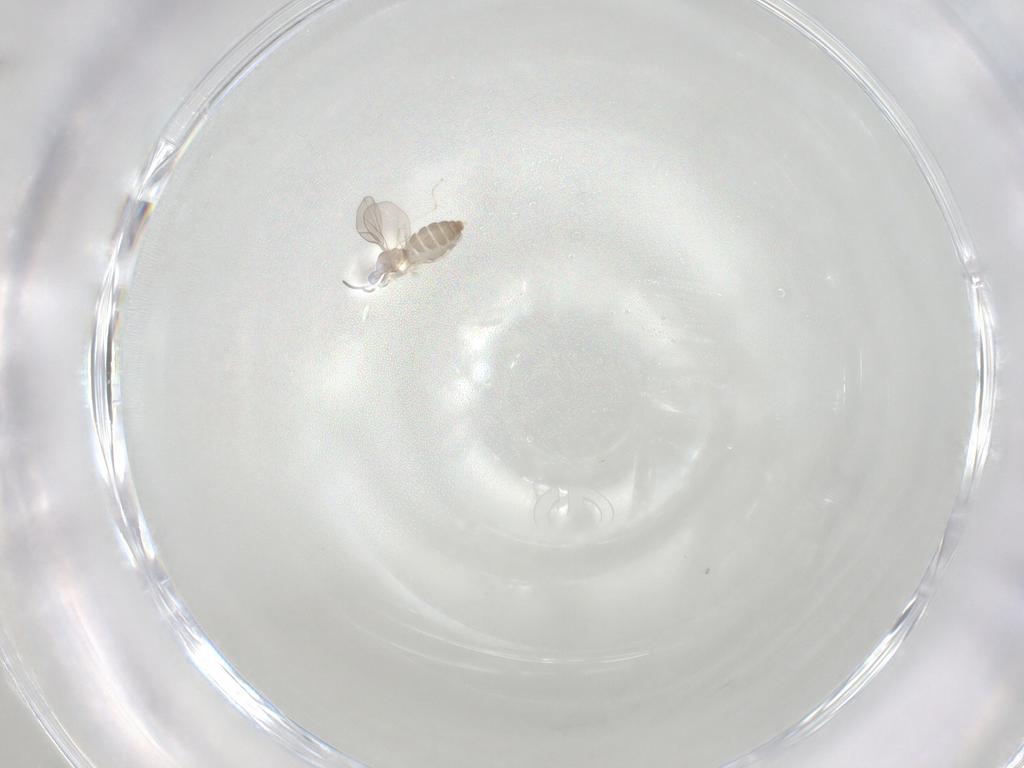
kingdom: Animalia
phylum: Arthropoda
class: Insecta
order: Diptera
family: Cecidomyiidae
